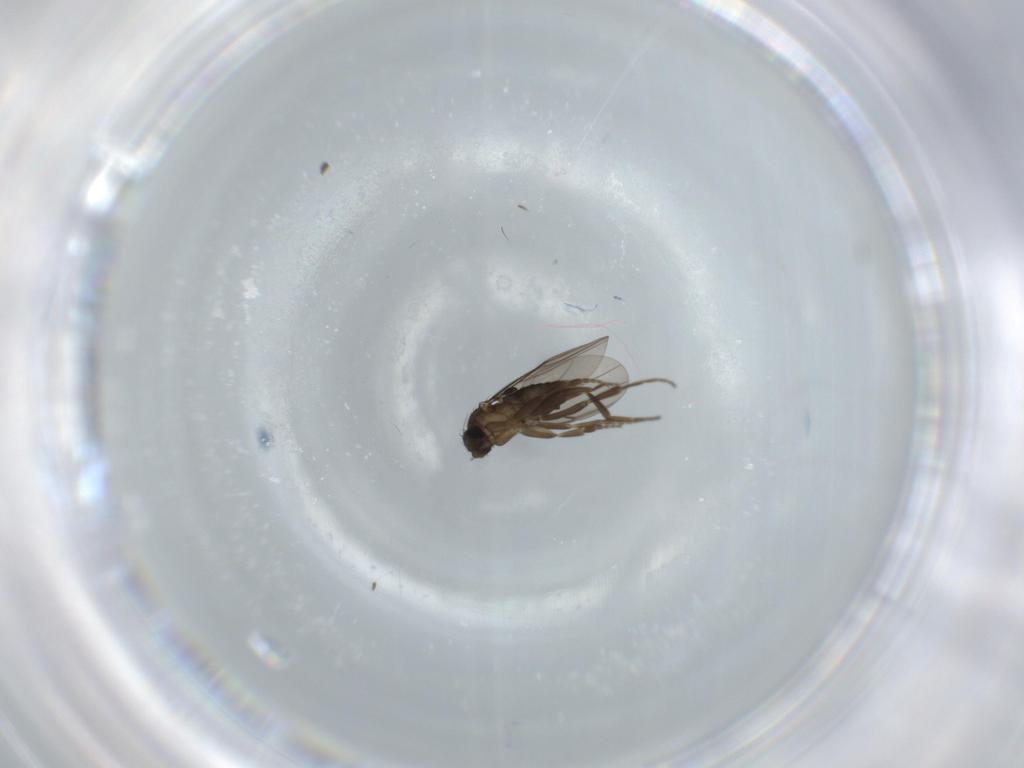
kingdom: Animalia
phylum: Arthropoda
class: Insecta
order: Diptera
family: Phoridae
